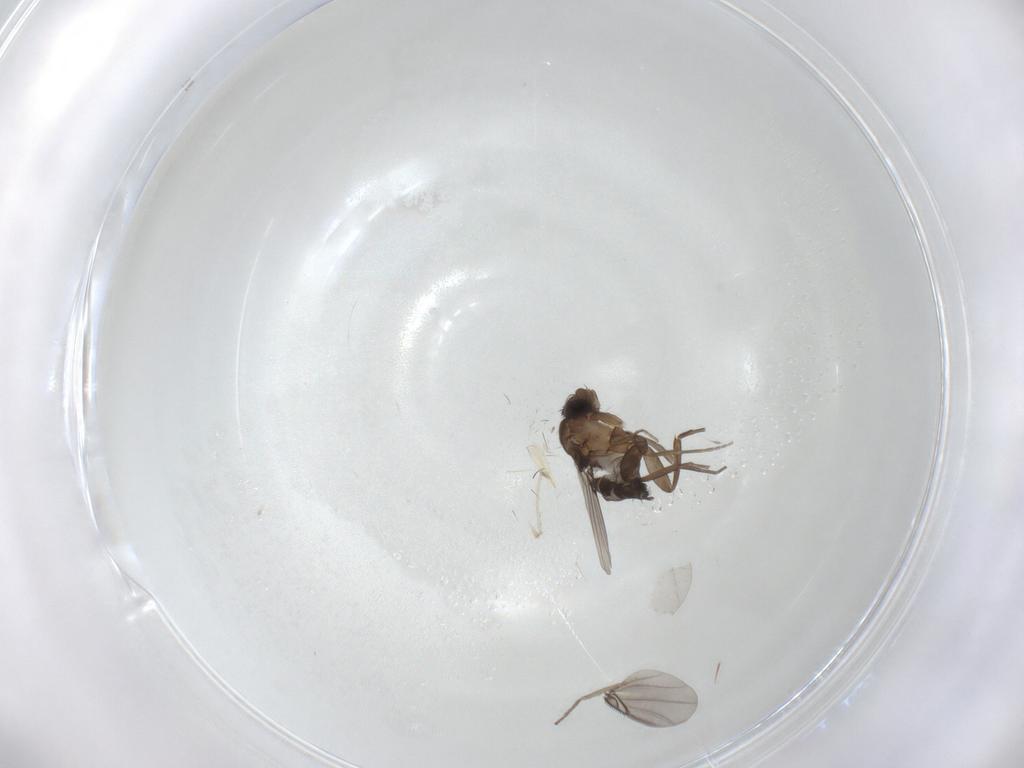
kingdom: Animalia
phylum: Arthropoda
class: Insecta
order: Diptera
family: Phoridae
